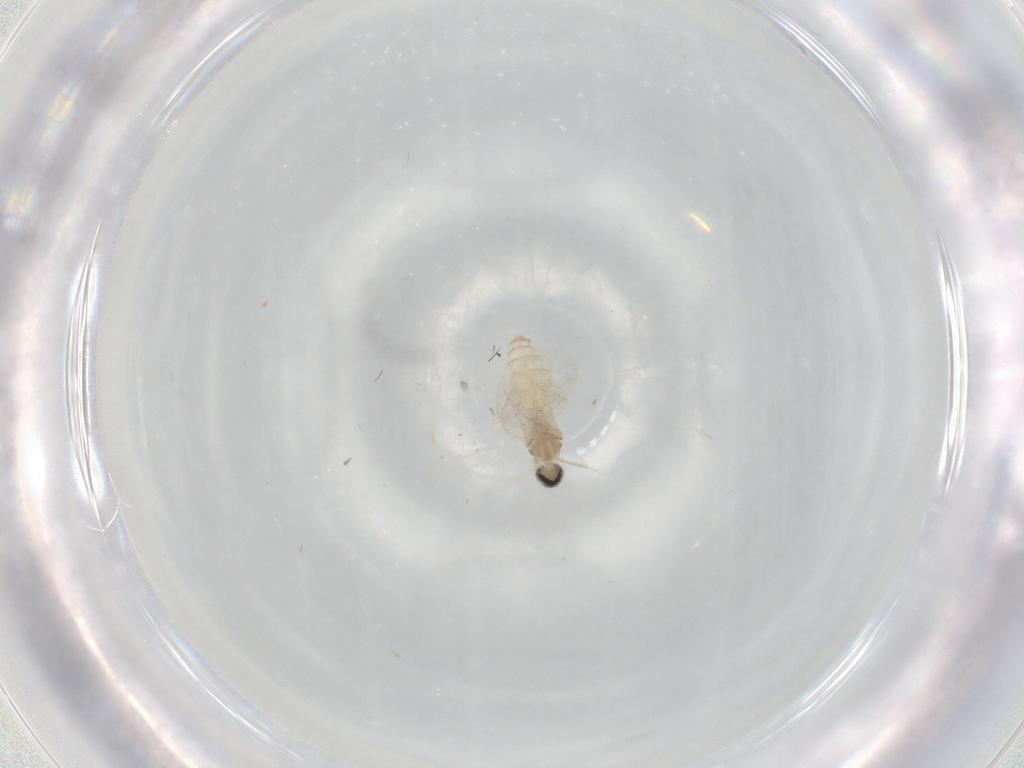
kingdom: Animalia
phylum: Arthropoda
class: Insecta
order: Diptera
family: Cecidomyiidae
